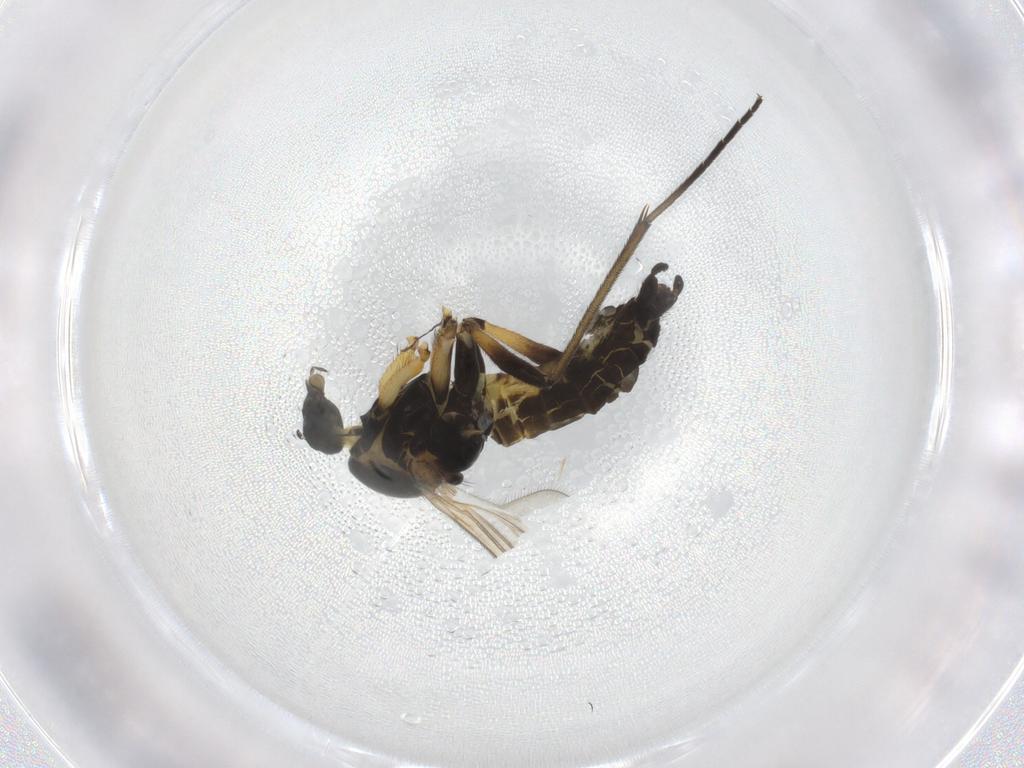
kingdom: Animalia
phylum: Arthropoda
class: Insecta
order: Diptera
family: Sciaridae
